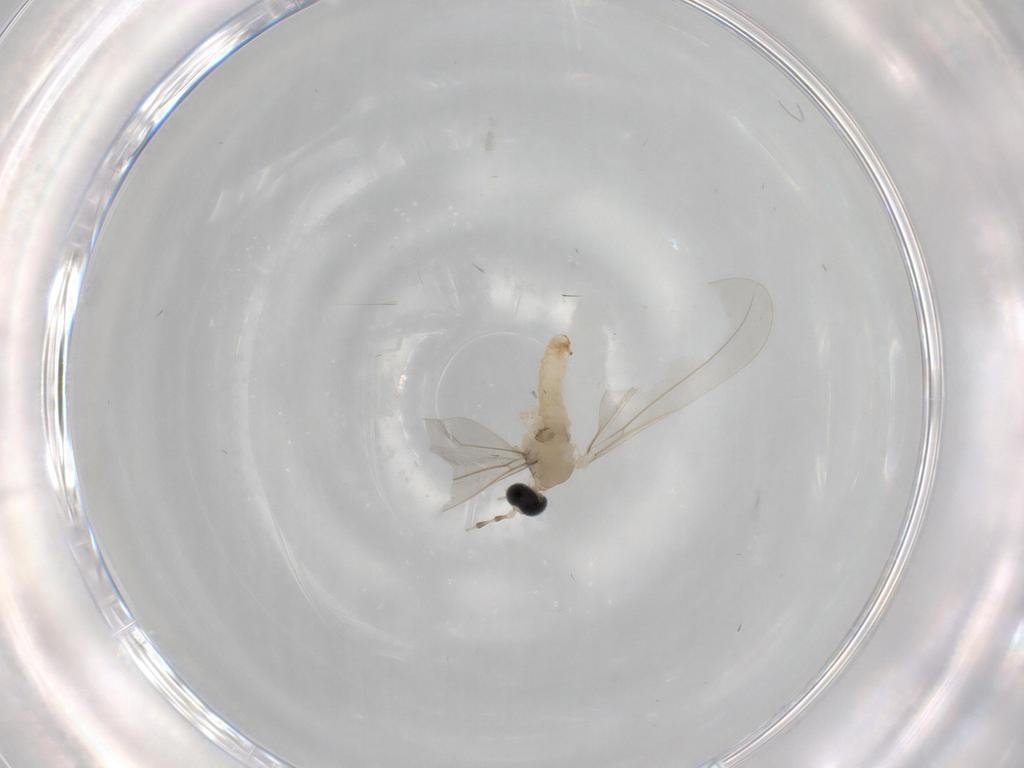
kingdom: Animalia
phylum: Arthropoda
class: Insecta
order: Diptera
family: Cecidomyiidae
